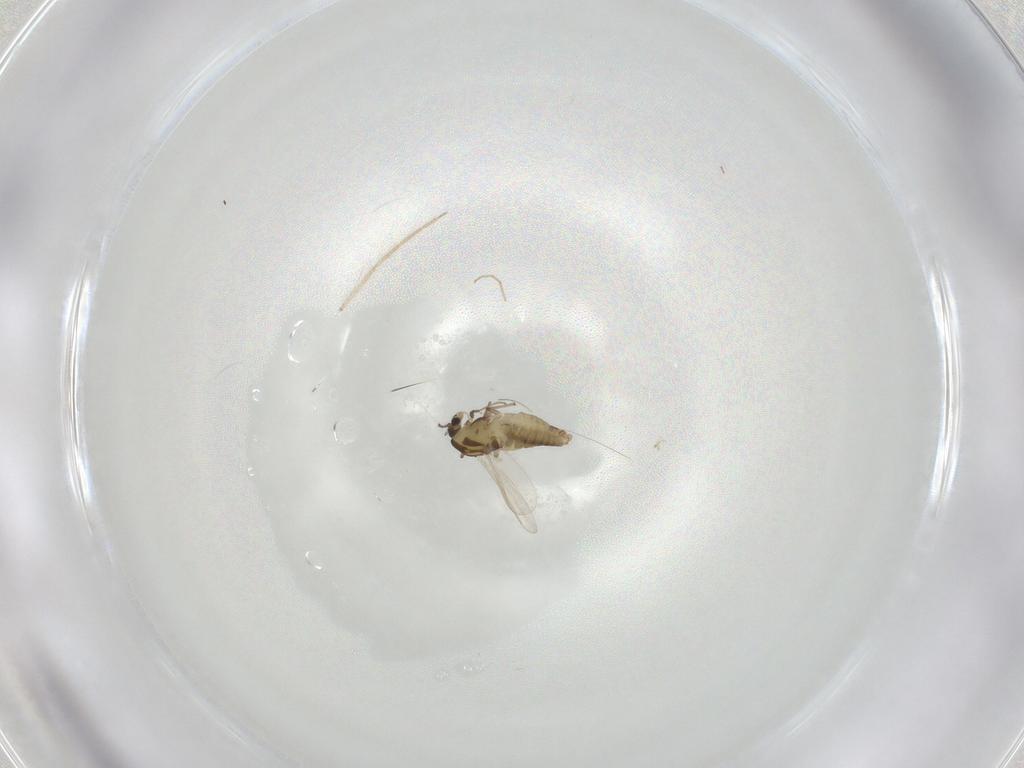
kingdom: Animalia
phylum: Arthropoda
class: Insecta
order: Diptera
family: Chironomidae
